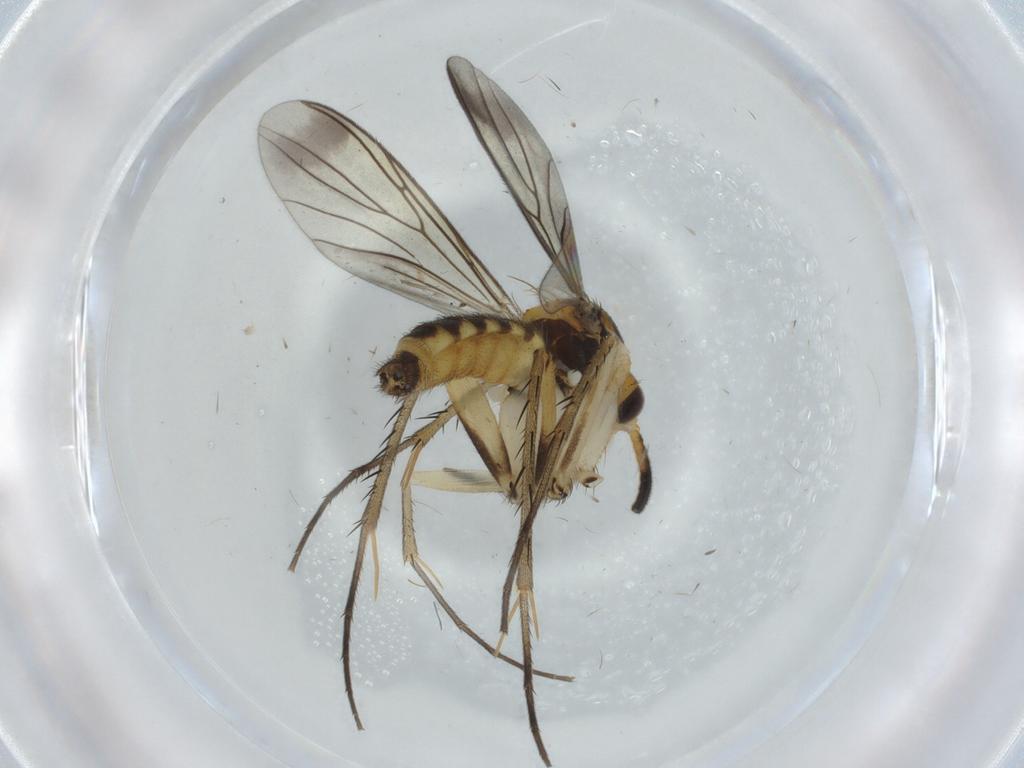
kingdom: Animalia
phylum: Arthropoda
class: Insecta
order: Diptera
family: Mycetophilidae
